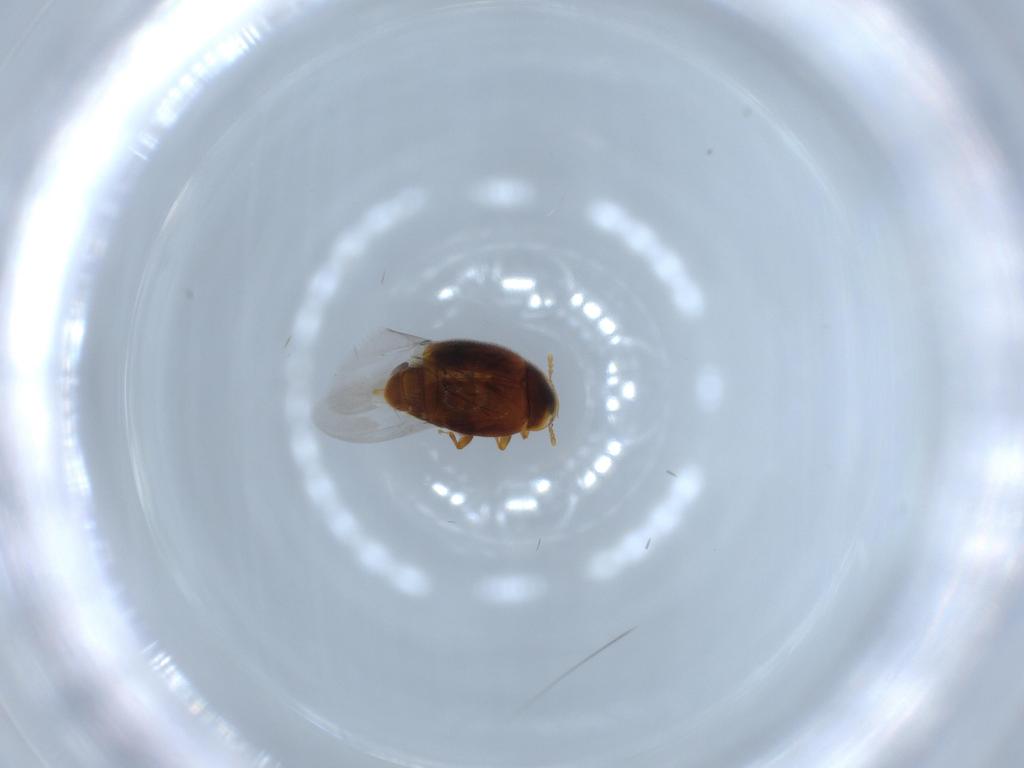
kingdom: Animalia
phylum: Arthropoda
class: Insecta
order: Coleoptera
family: Corylophidae
